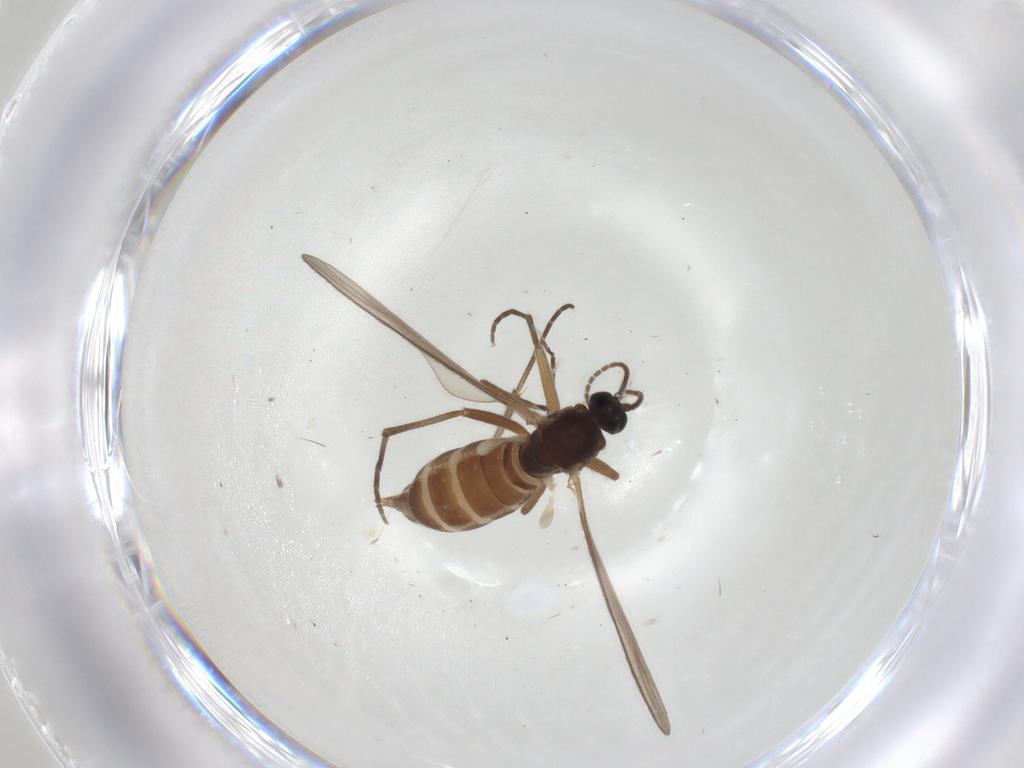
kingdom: Animalia
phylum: Arthropoda
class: Insecta
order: Diptera
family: Sciaridae
